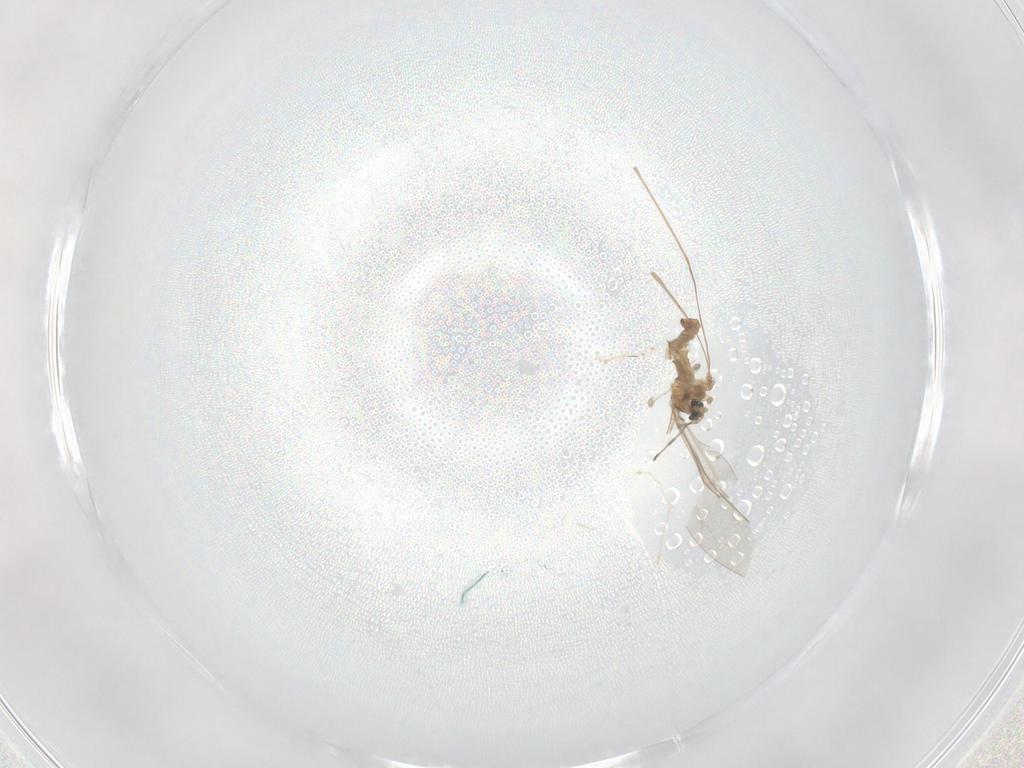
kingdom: Animalia
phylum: Arthropoda
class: Insecta
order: Diptera
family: Cecidomyiidae
